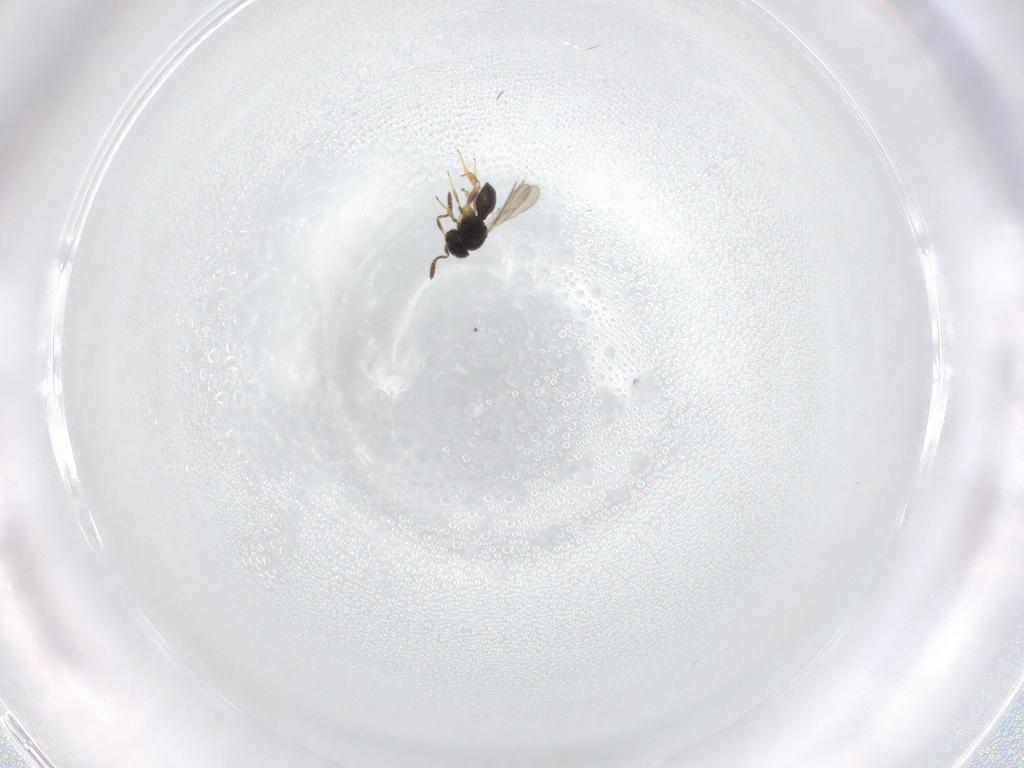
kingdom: Animalia
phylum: Arthropoda
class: Insecta
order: Hymenoptera
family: Scelionidae
